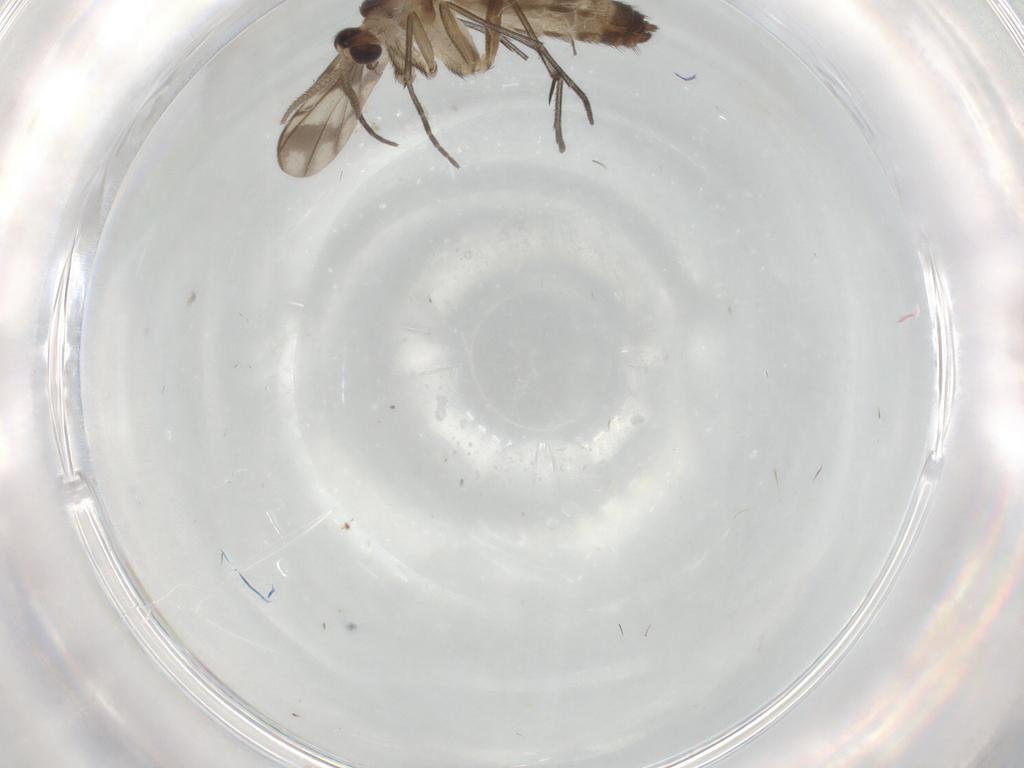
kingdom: Animalia
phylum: Arthropoda
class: Insecta
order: Diptera
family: Keroplatidae
